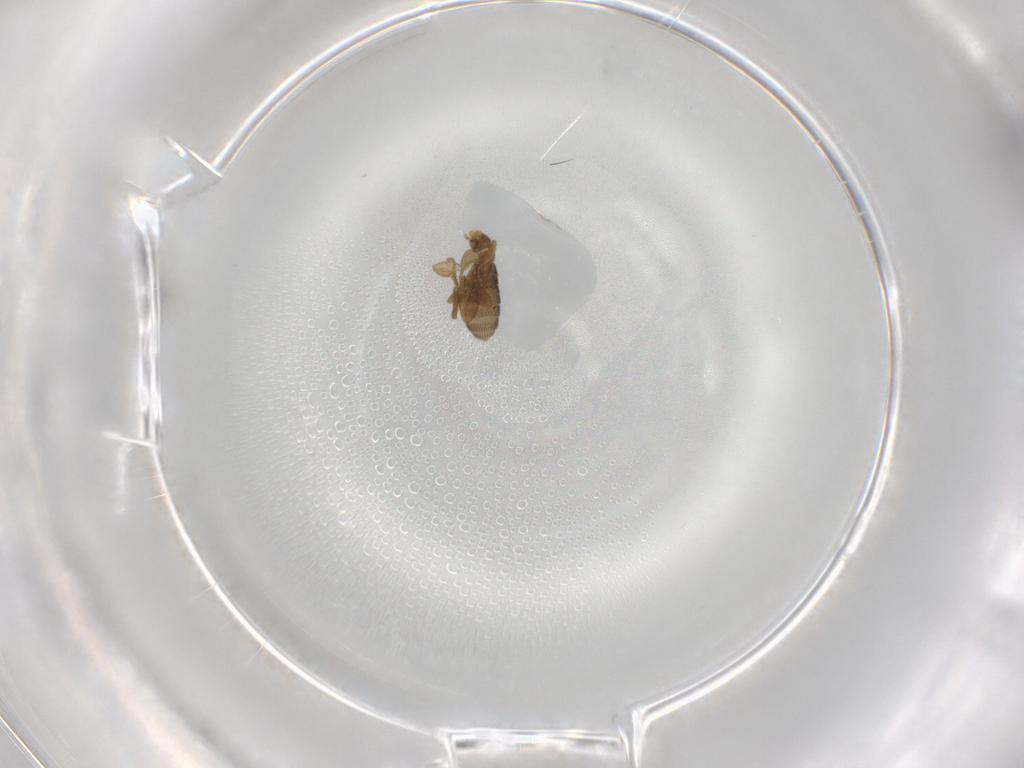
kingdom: Animalia
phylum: Arthropoda
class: Insecta
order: Diptera
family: Sphaeroceridae
